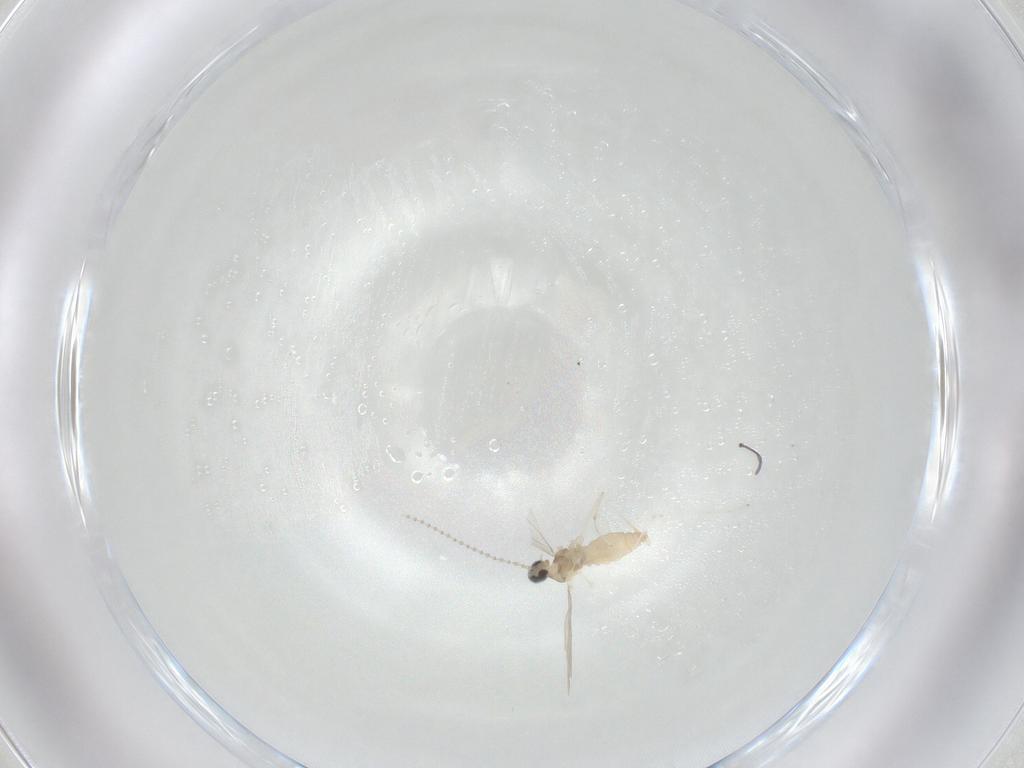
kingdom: Animalia
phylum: Arthropoda
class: Insecta
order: Diptera
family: Cecidomyiidae
